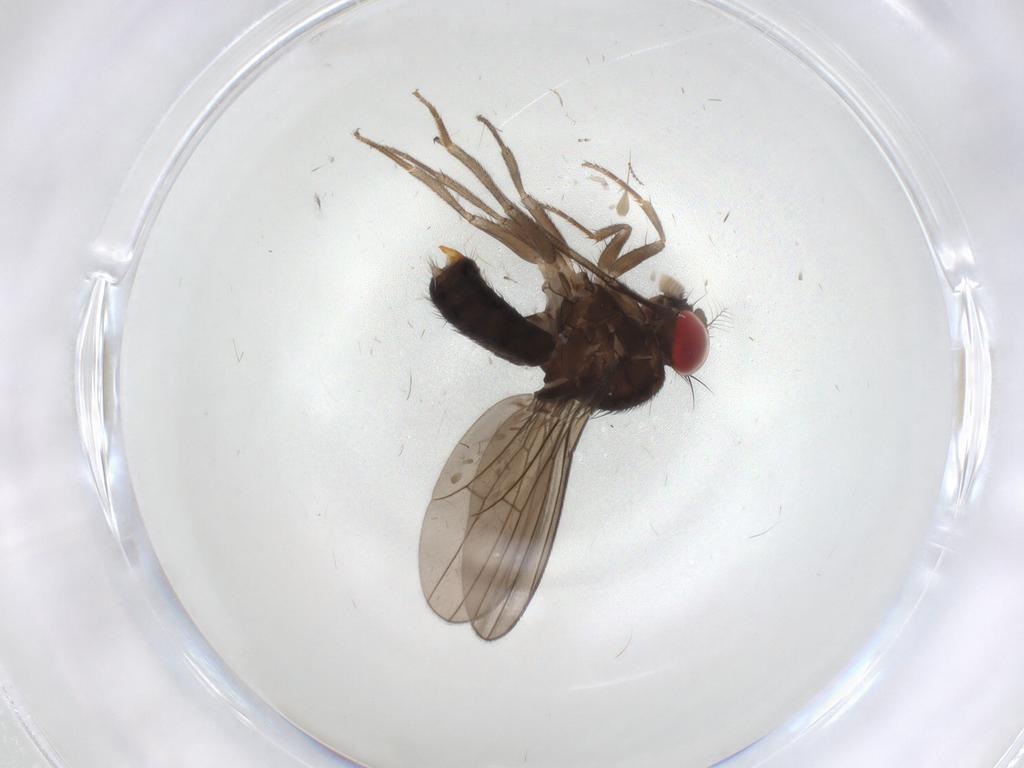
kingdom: Animalia
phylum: Arthropoda
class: Insecta
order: Diptera
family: Drosophilidae
